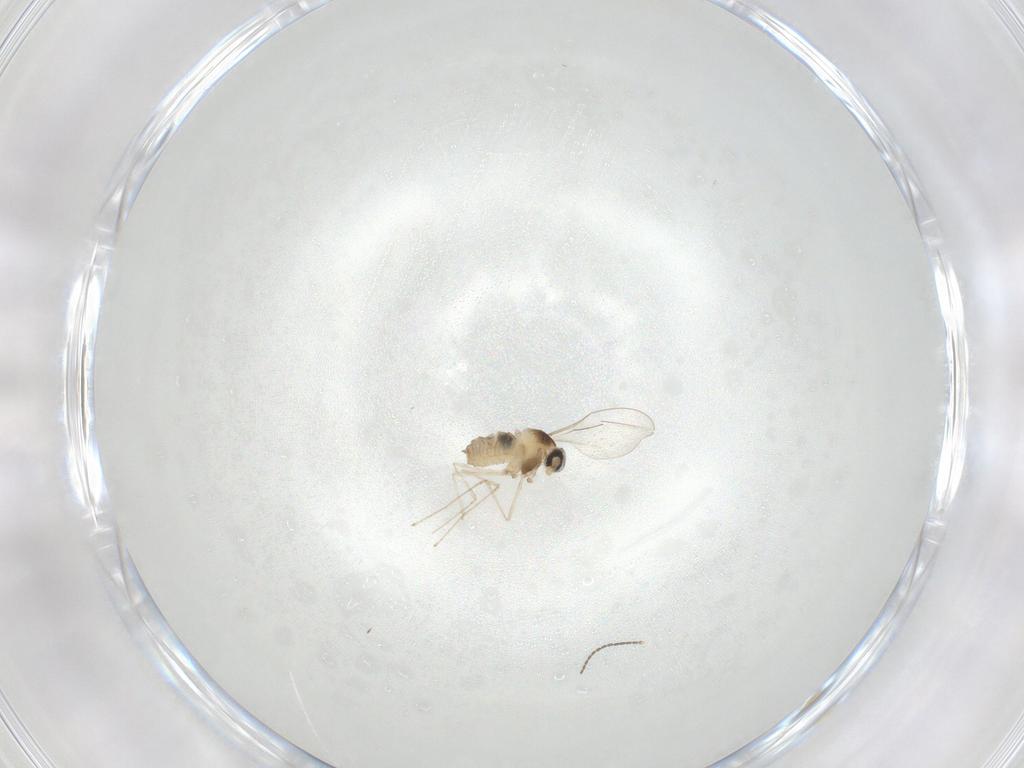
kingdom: Animalia
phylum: Arthropoda
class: Insecta
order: Diptera
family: Cecidomyiidae
